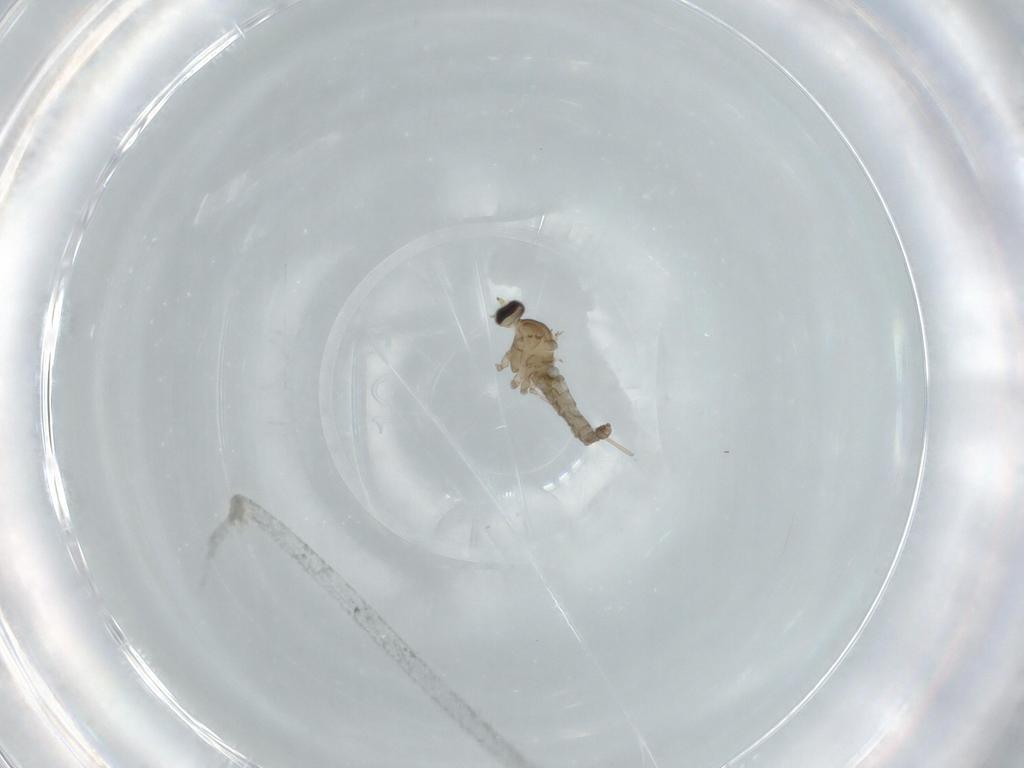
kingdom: Animalia
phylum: Arthropoda
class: Insecta
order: Diptera
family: Cecidomyiidae
